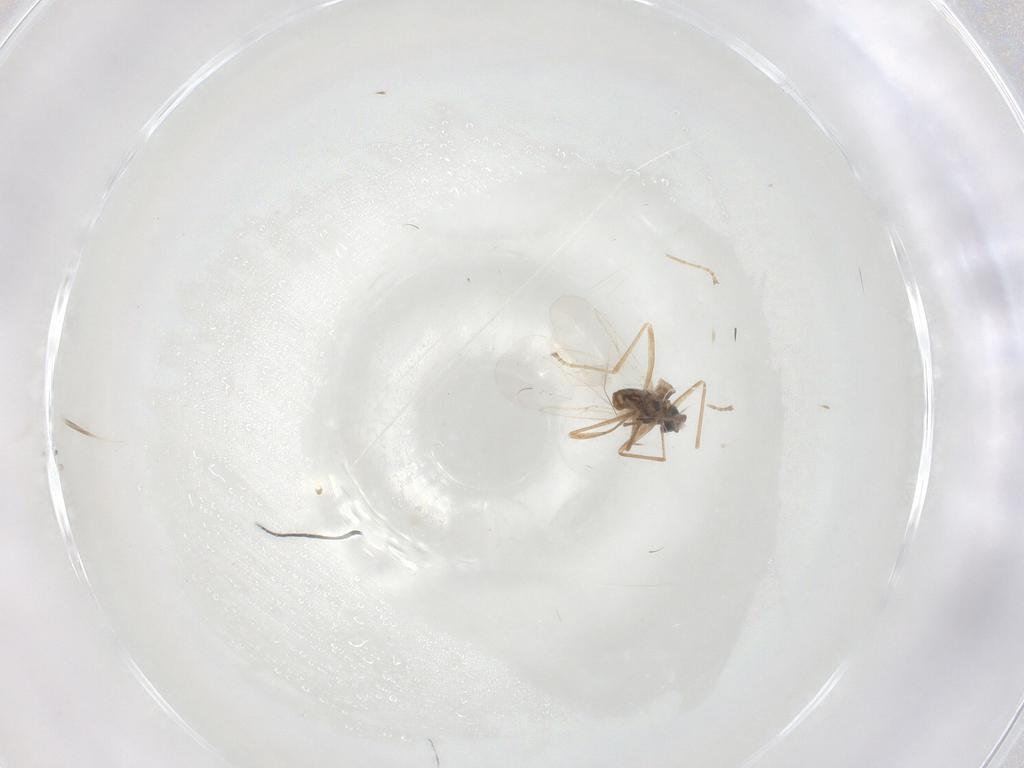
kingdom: Animalia
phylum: Arthropoda
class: Insecta
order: Diptera
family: Cecidomyiidae
